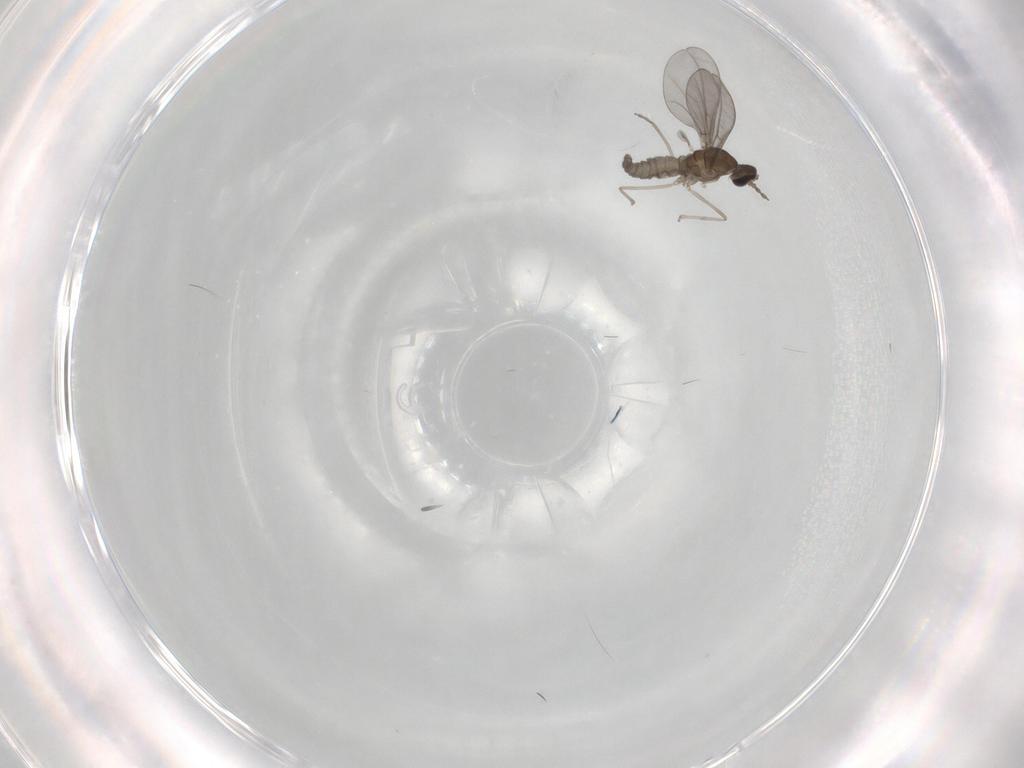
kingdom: Animalia
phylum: Arthropoda
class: Insecta
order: Diptera
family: Cecidomyiidae
